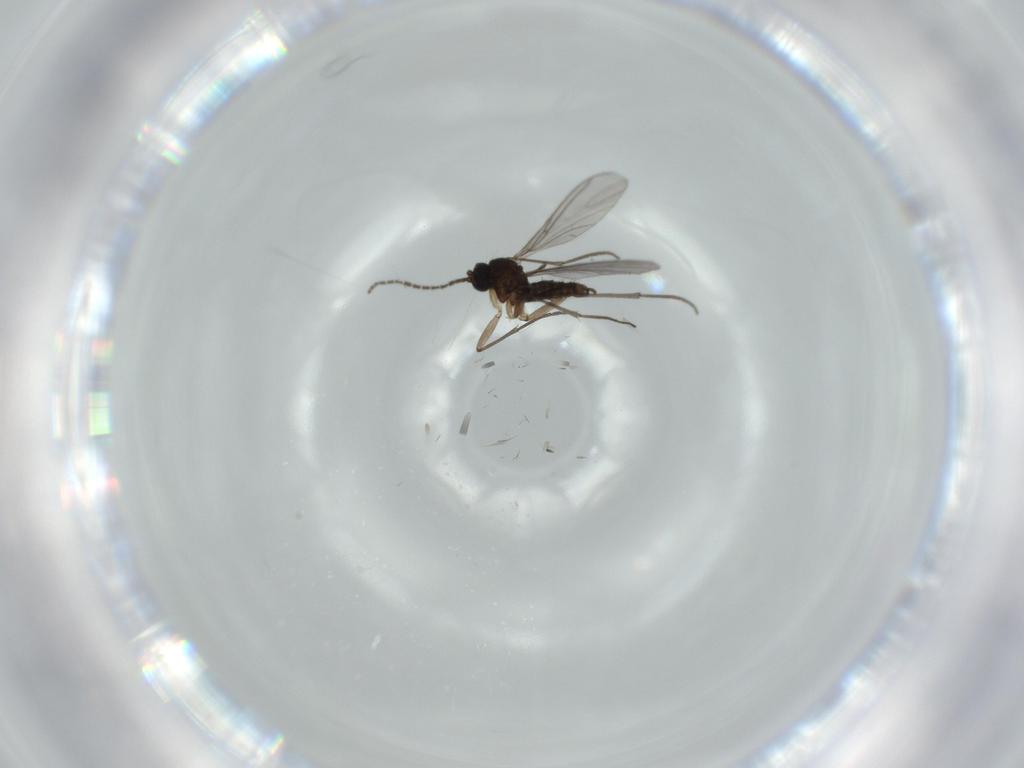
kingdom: Animalia
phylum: Arthropoda
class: Insecta
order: Diptera
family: Sciaridae
